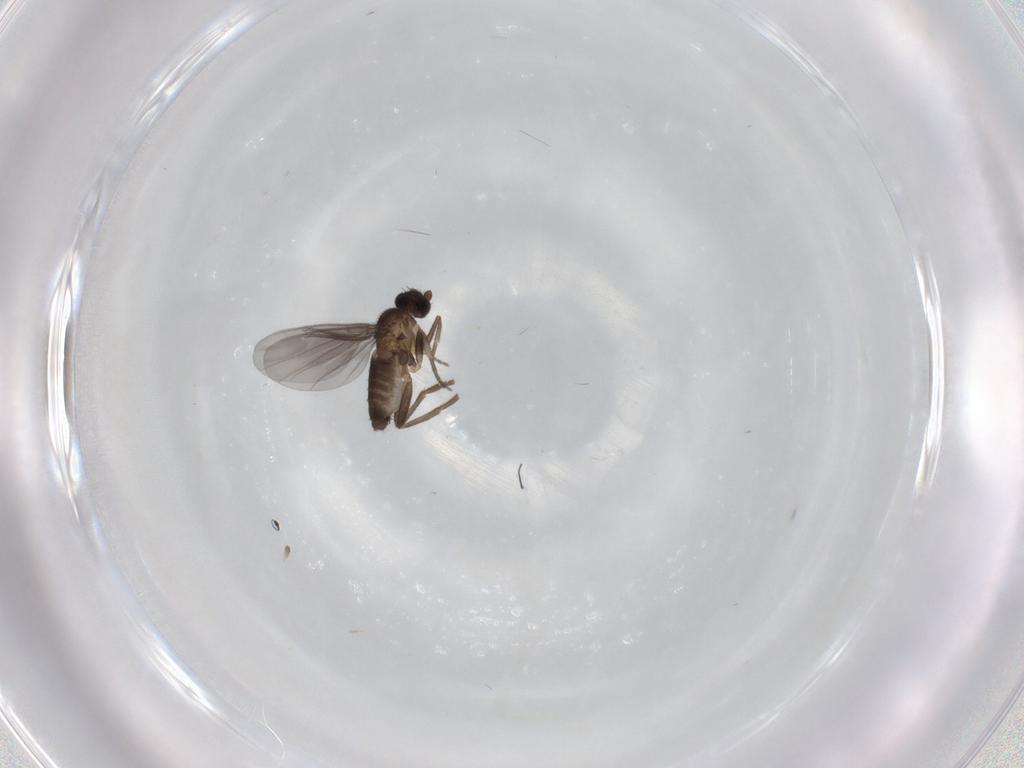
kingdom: Animalia
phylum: Arthropoda
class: Insecta
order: Diptera
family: Phoridae
